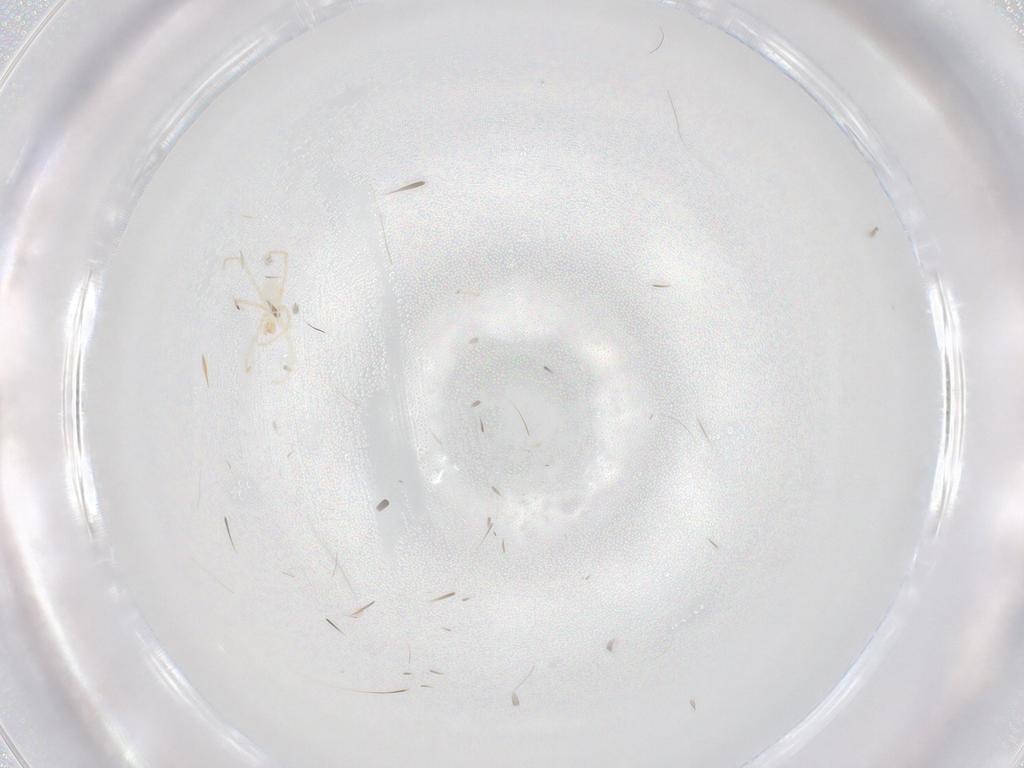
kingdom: Animalia
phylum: Arthropoda
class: Arachnida
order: Trombidiformes
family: Erythraeidae
